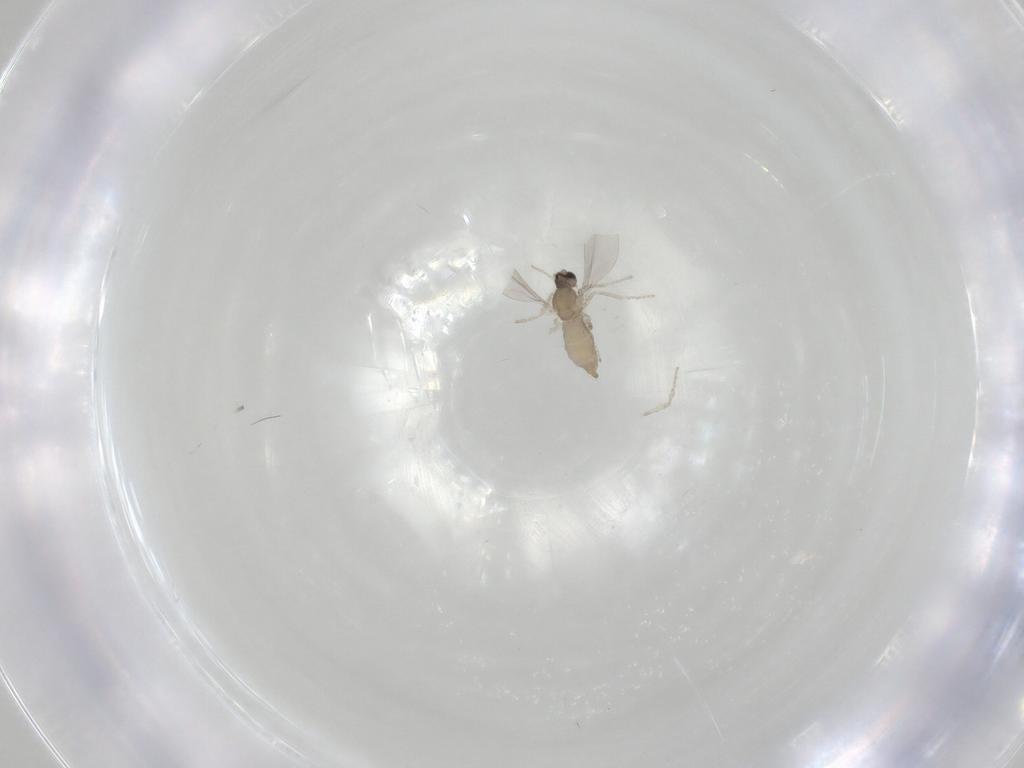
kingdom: Animalia
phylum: Arthropoda
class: Insecta
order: Diptera
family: Cecidomyiidae
